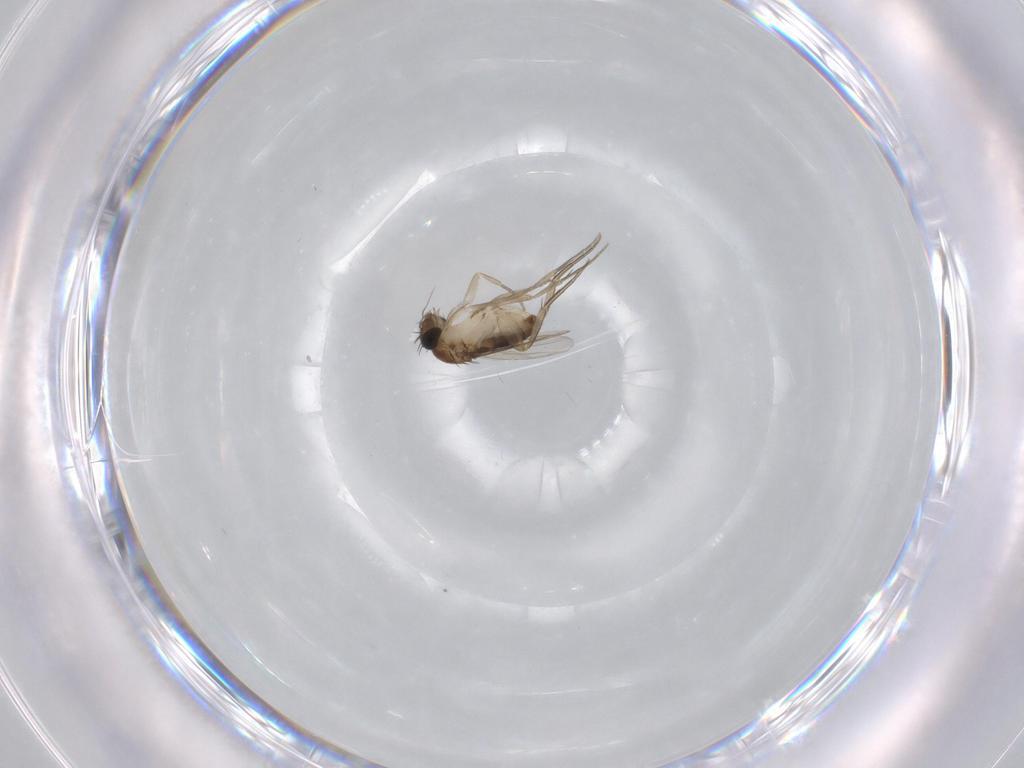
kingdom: Animalia
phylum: Arthropoda
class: Insecta
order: Diptera
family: Phoridae
